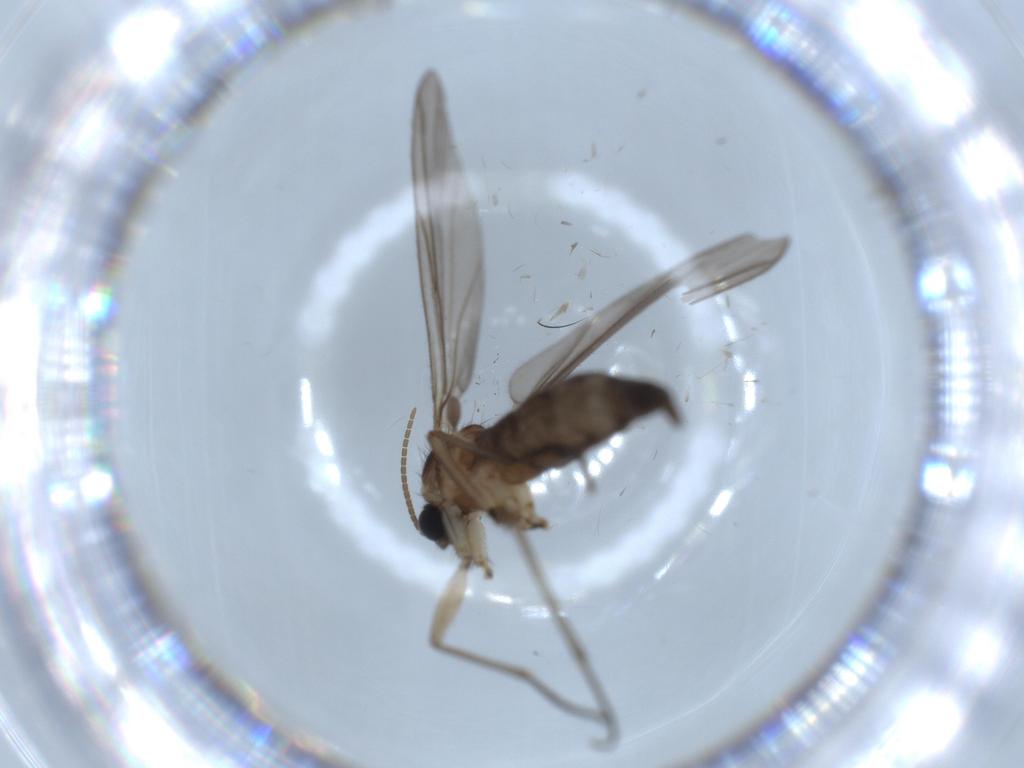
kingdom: Animalia
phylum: Arthropoda
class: Insecta
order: Diptera
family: Sciaridae
